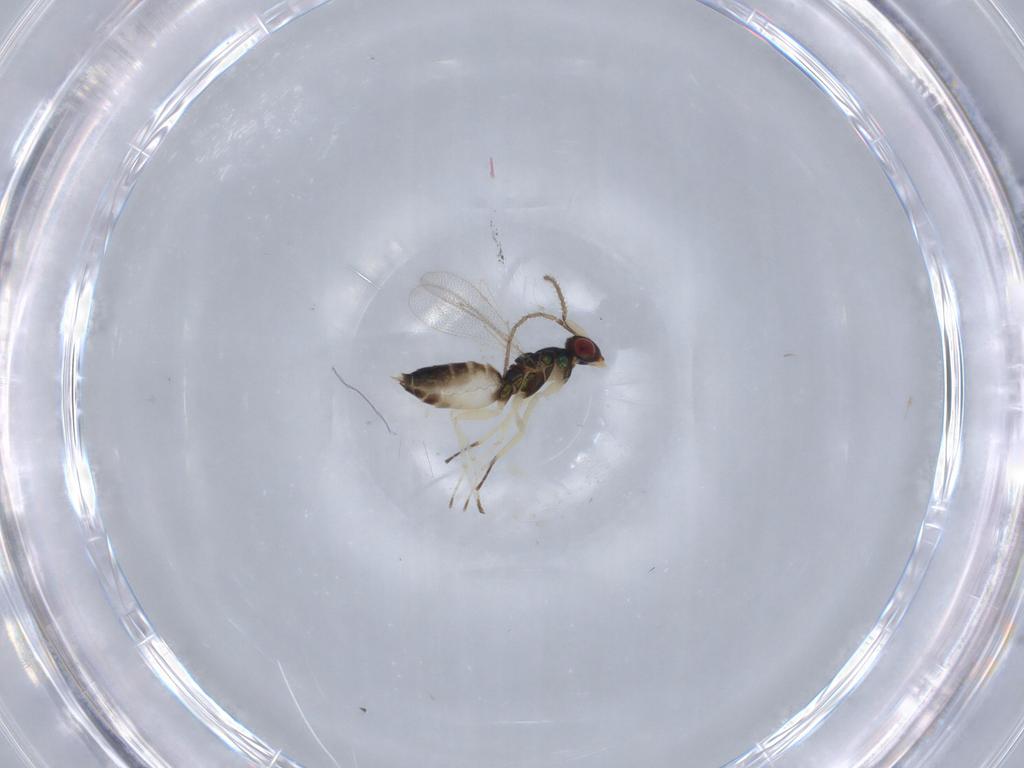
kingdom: Animalia
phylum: Arthropoda
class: Insecta
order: Hymenoptera
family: Eulophidae
